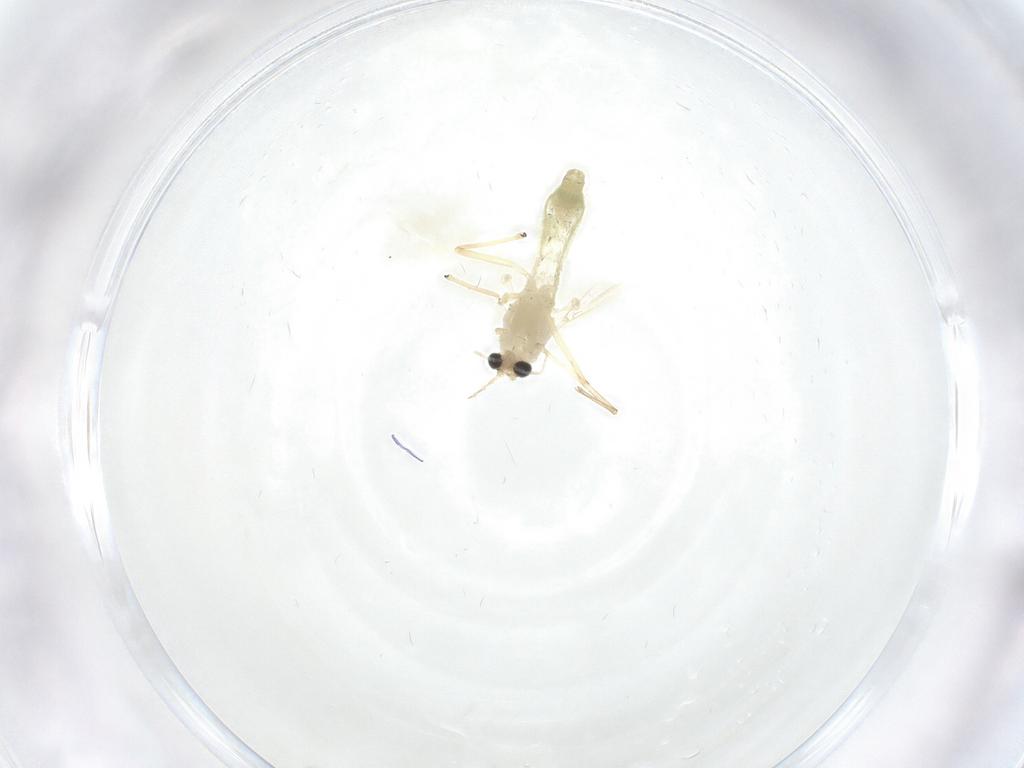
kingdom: Animalia
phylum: Arthropoda
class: Insecta
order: Diptera
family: Chironomidae
